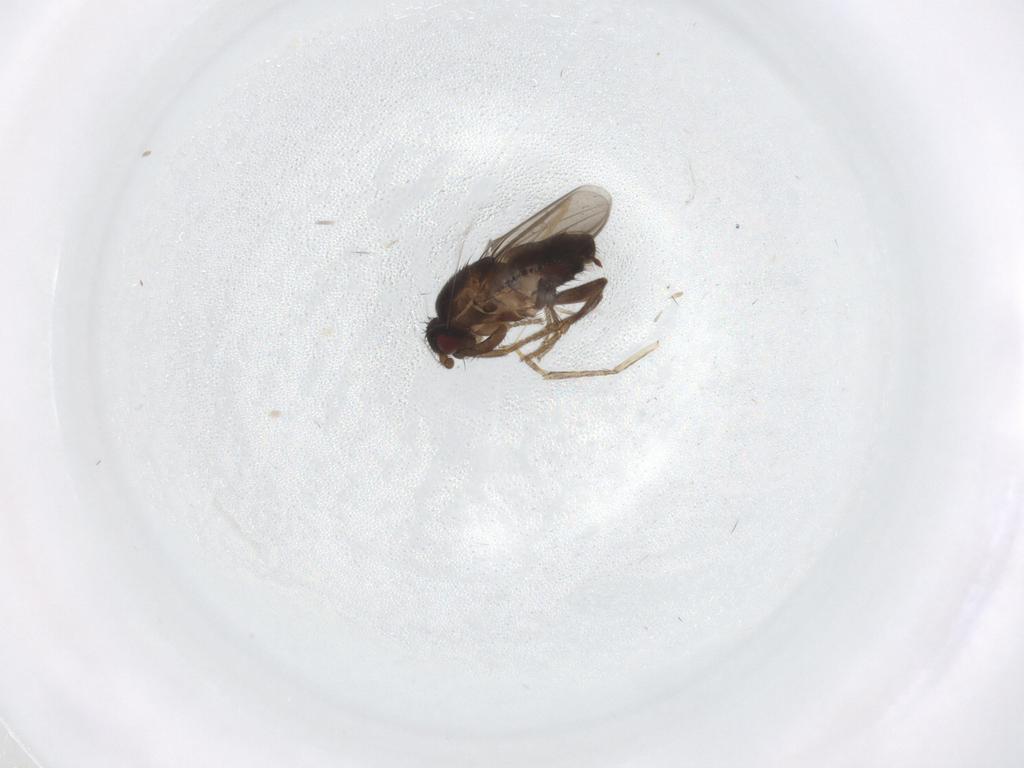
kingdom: Animalia
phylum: Arthropoda
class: Insecta
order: Diptera
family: Psychodidae
